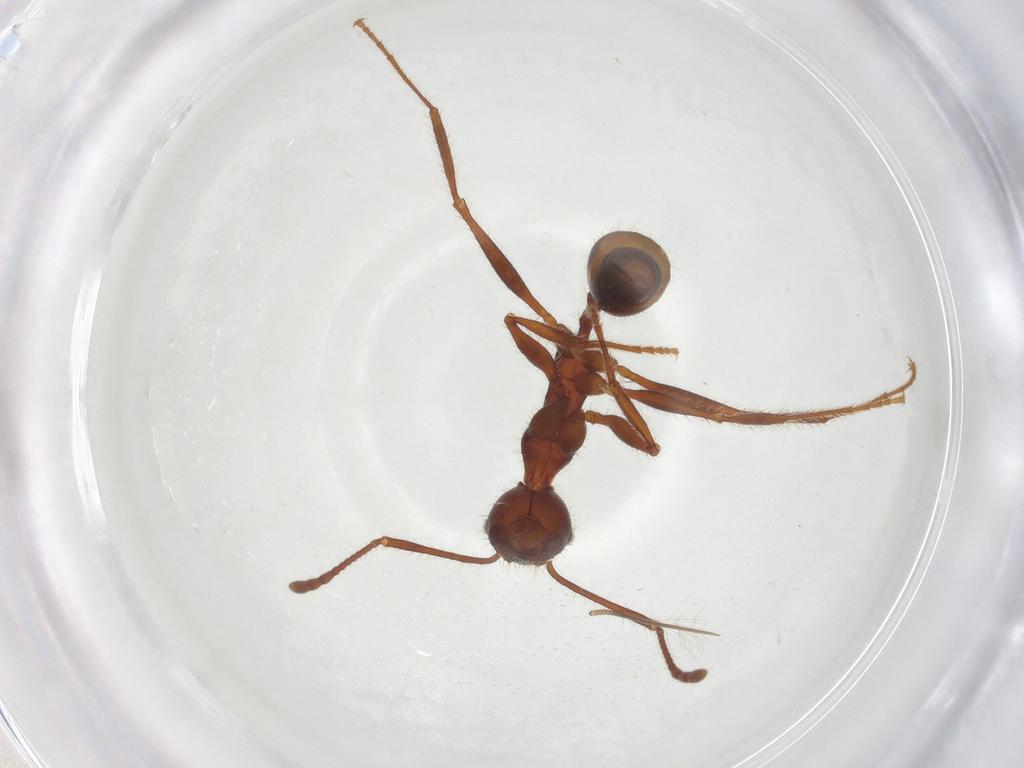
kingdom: Animalia
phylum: Arthropoda
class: Insecta
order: Hymenoptera
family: Formicidae
